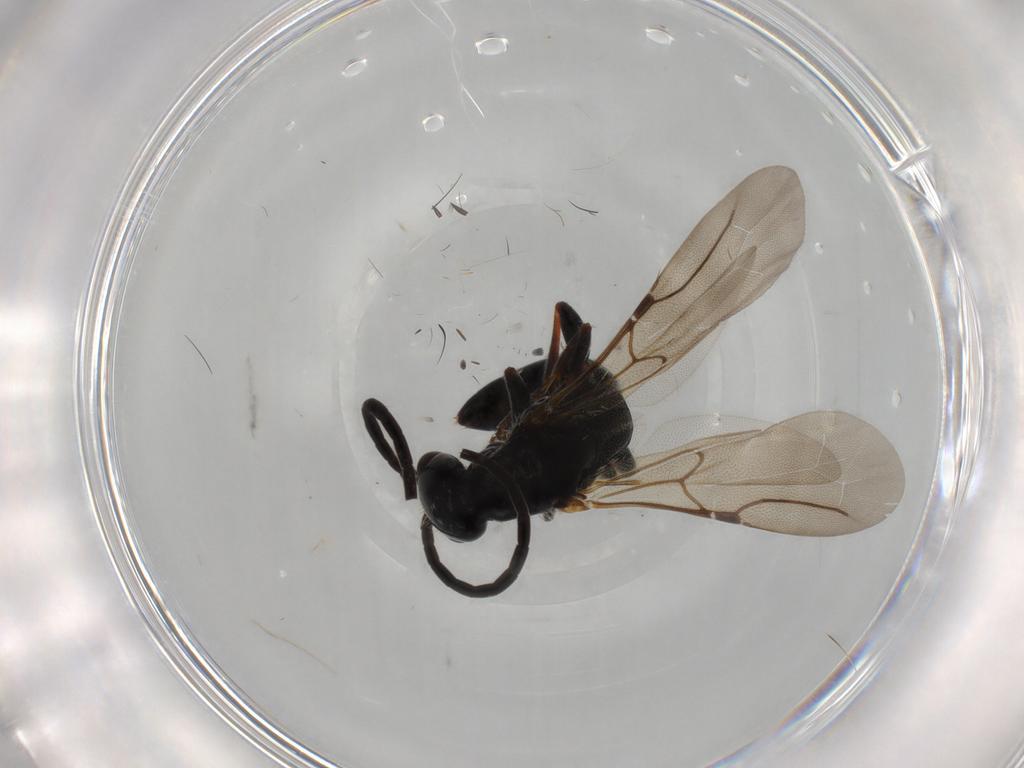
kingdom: Animalia
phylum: Arthropoda
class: Insecta
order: Hymenoptera
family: Bethylidae
